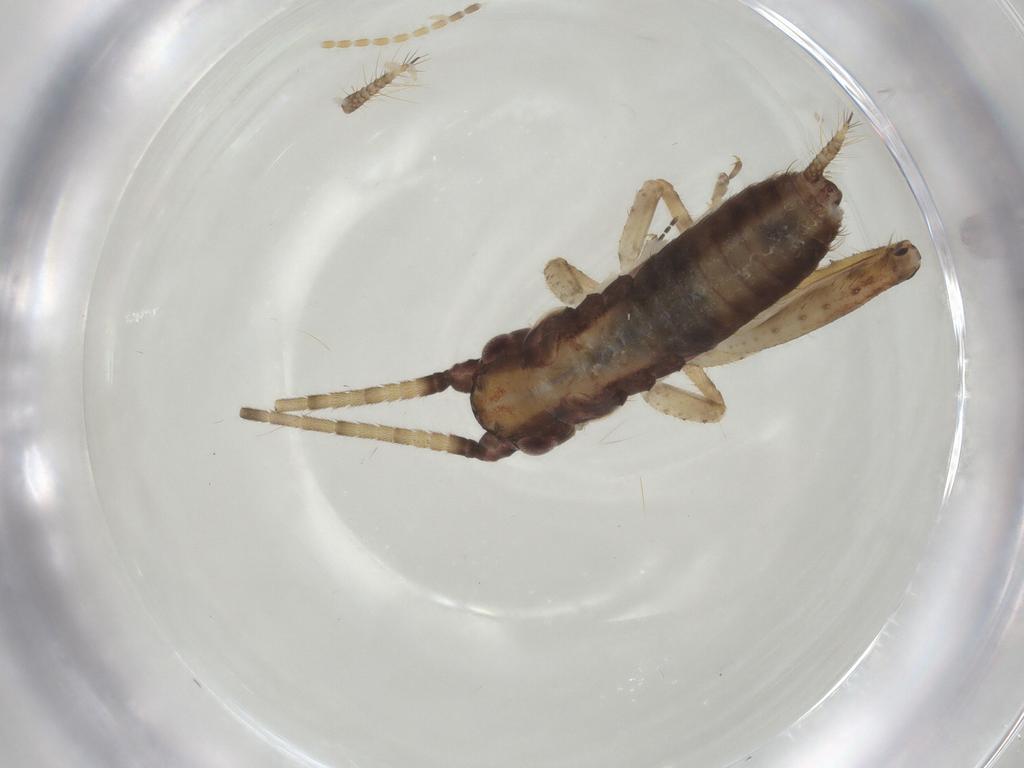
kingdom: Animalia
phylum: Arthropoda
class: Insecta
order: Orthoptera
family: Gryllidae
